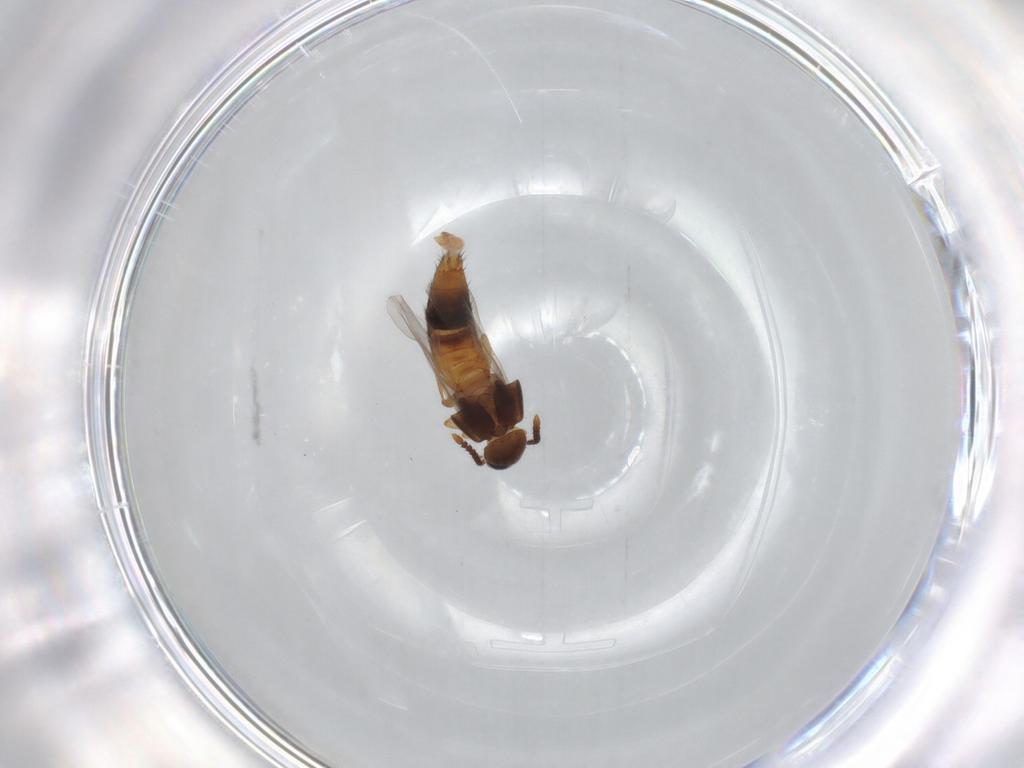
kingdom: Animalia
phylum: Arthropoda
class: Insecta
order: Coleoptera
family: Staphylinidae
